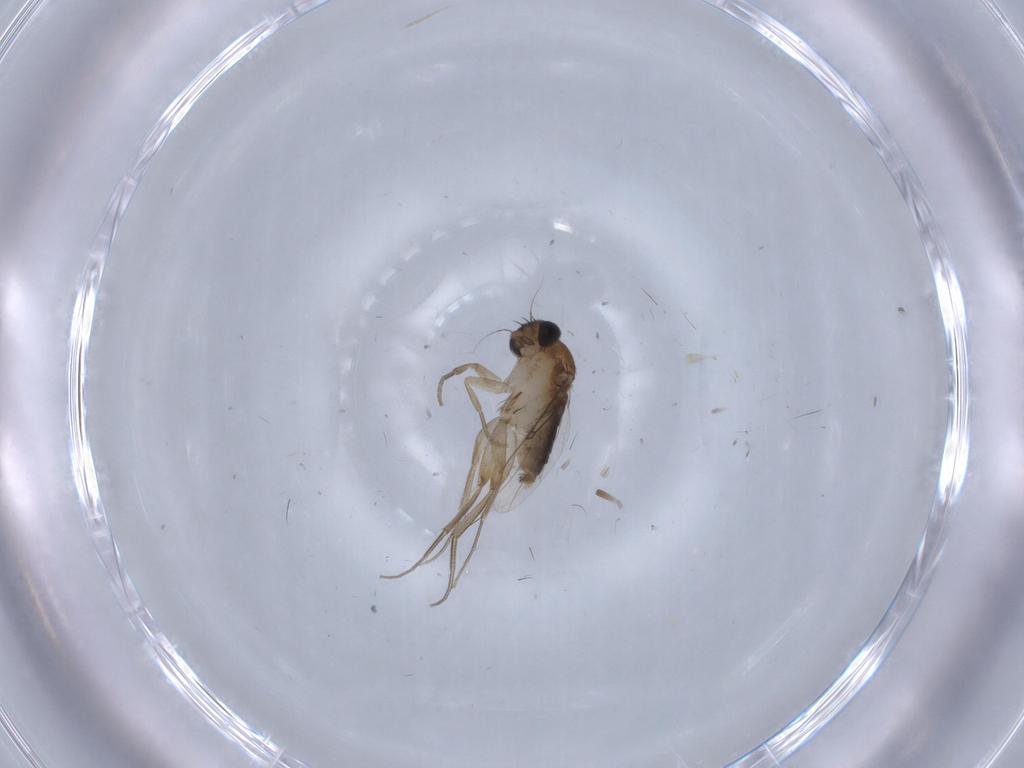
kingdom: Animalia
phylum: Arthropoda
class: Insecta
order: Diptera
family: Phoridae
